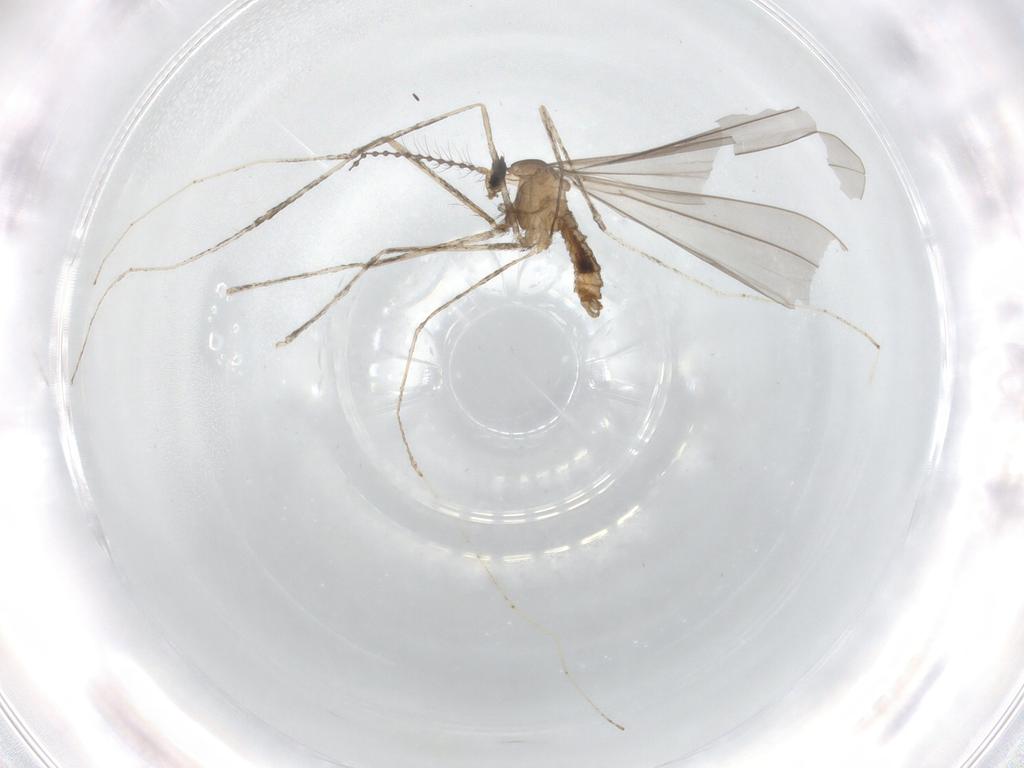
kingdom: Animalia
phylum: Arthropoda
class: Insecta
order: Diptera
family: Cecidomyiidae
